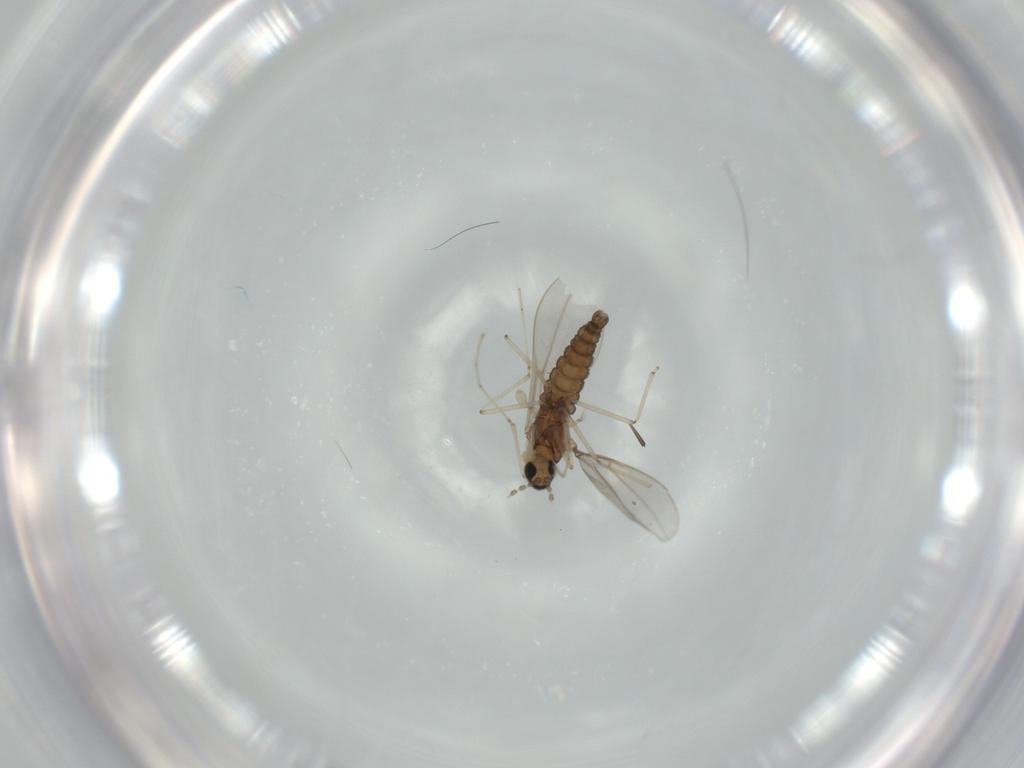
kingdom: Animalia
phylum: Arthropoda
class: Insecta
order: Diptera
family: Cecidomyiidae
